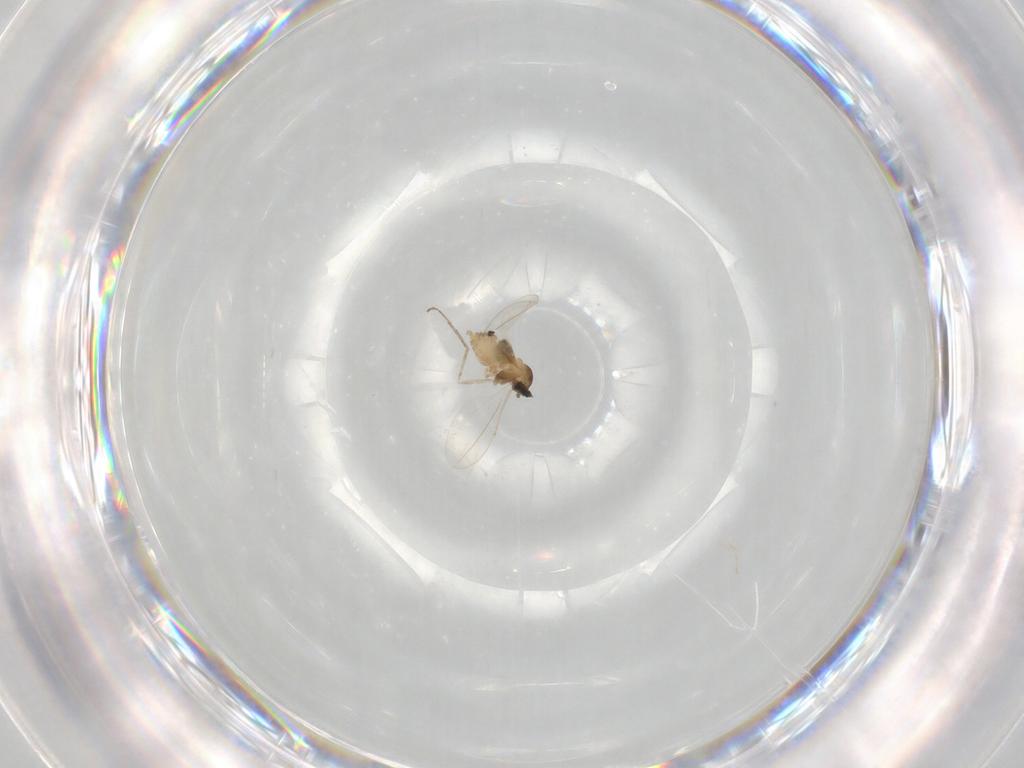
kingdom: Animalia
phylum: Arthropoda
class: Insecta
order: Diptera
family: Cecidomyiidae
